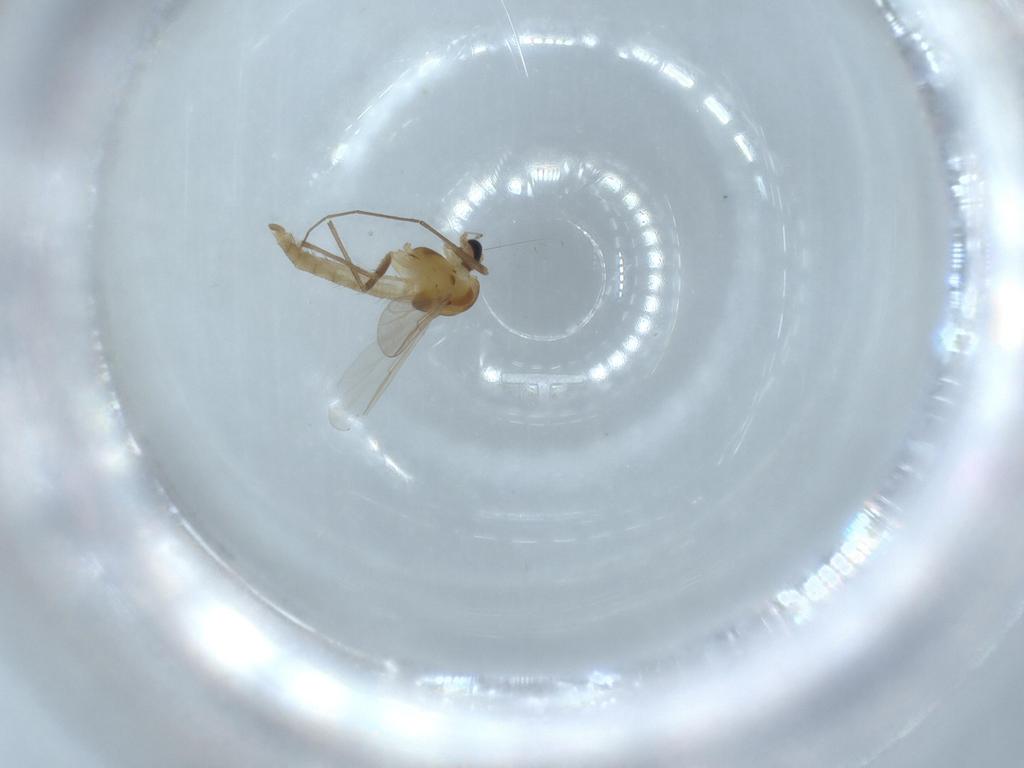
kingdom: Animalia
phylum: Arthropoda
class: Insecta
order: Diptera
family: Chironomidae
